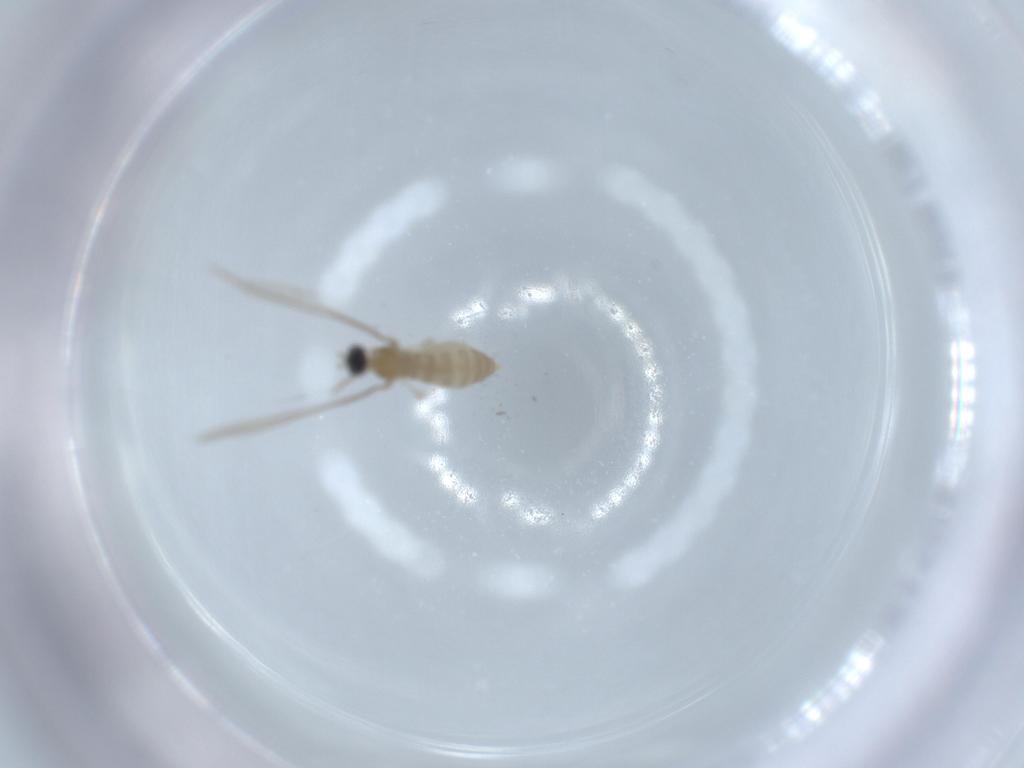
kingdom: Animalia
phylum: Arthropoda
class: Insecta
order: Diptera
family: Cecidomyiidae
